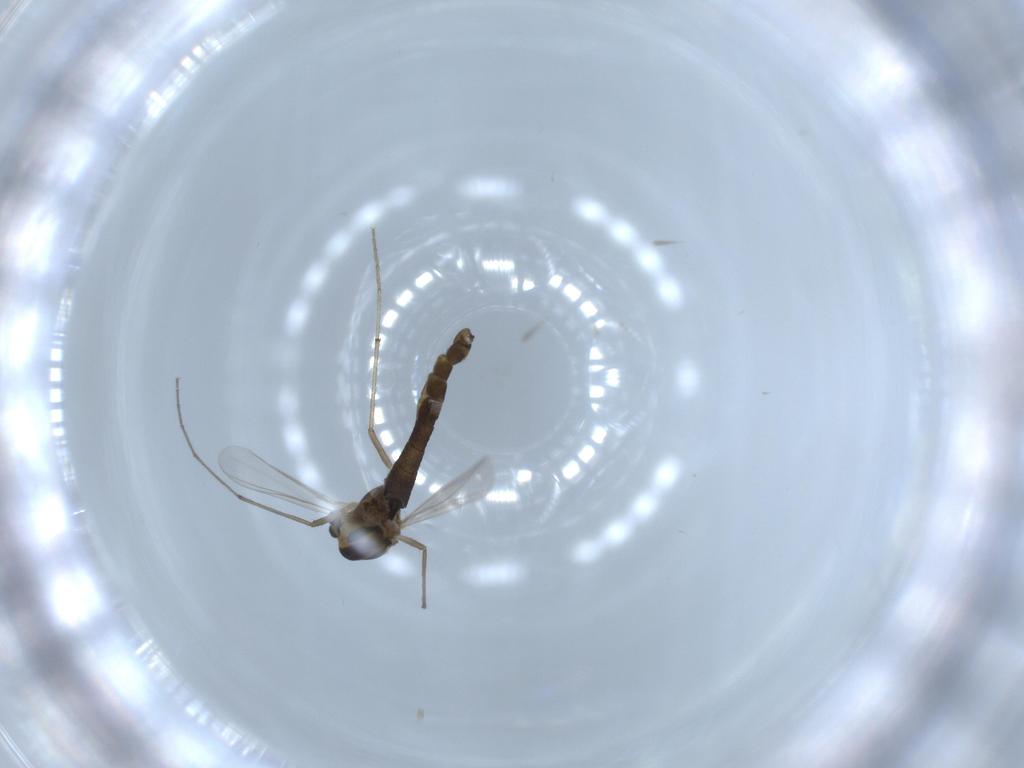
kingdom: Animalia
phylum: Arthropoda
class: Insecta
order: Diptera
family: Chironomidae
